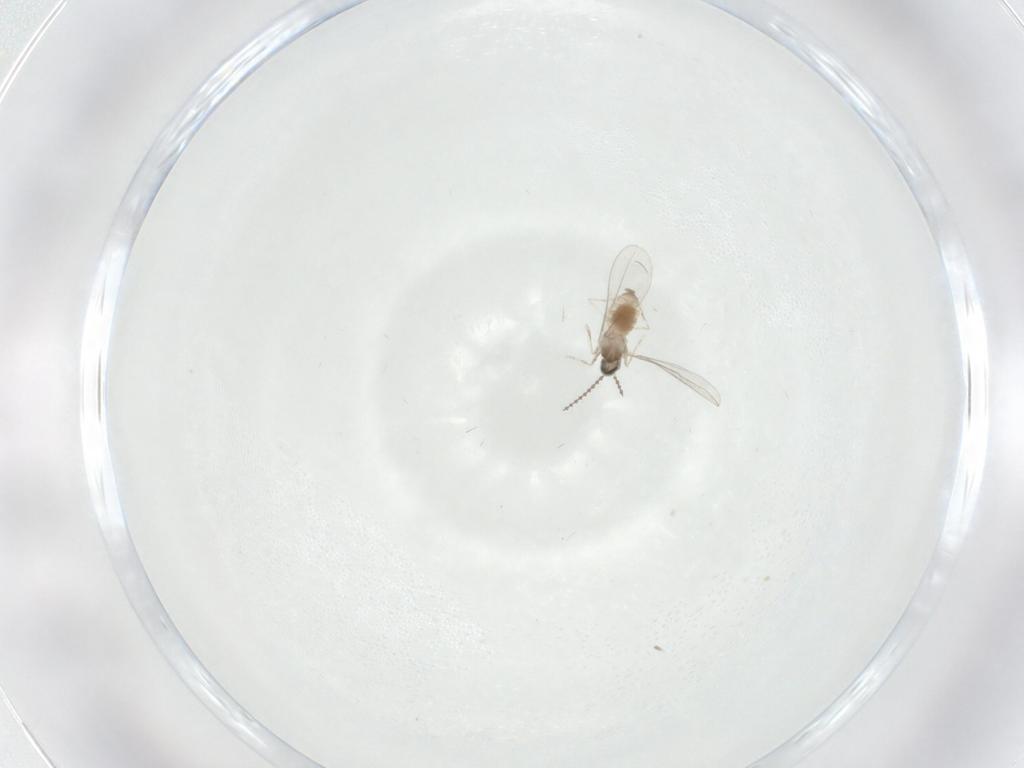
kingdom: Animalia
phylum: Arthropoda
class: Insecta
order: Diptera
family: Cecidomyiidae
